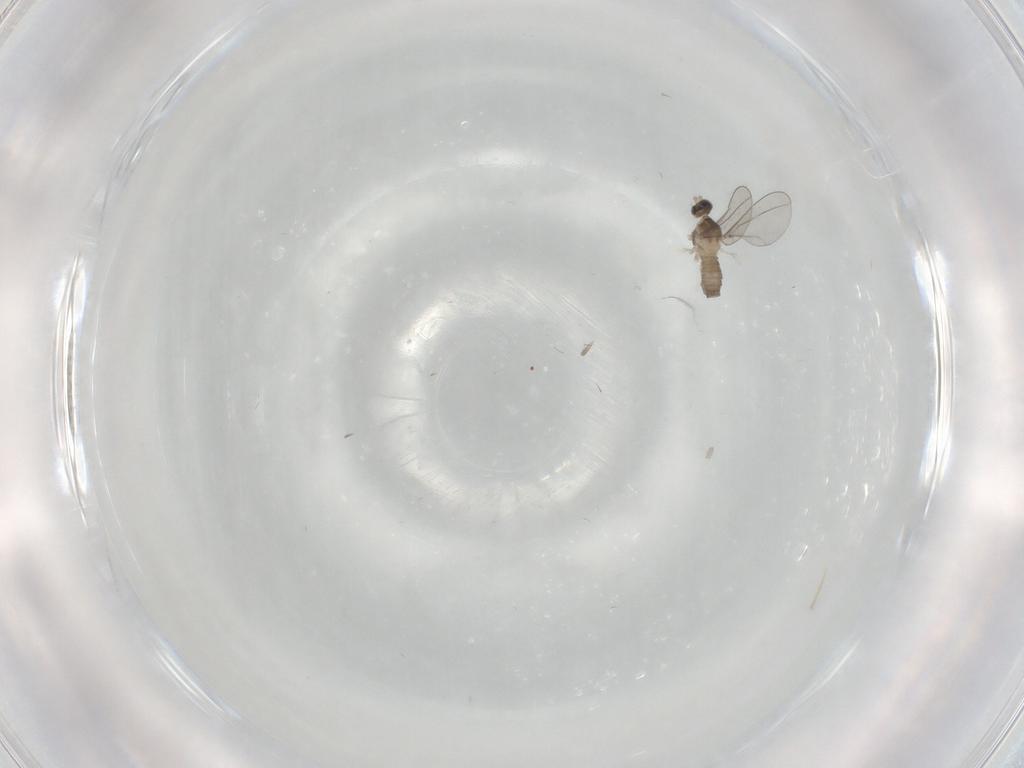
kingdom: Animalia
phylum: Arthropoda
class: Insecta
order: Diptera
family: Cecidomyiidae
